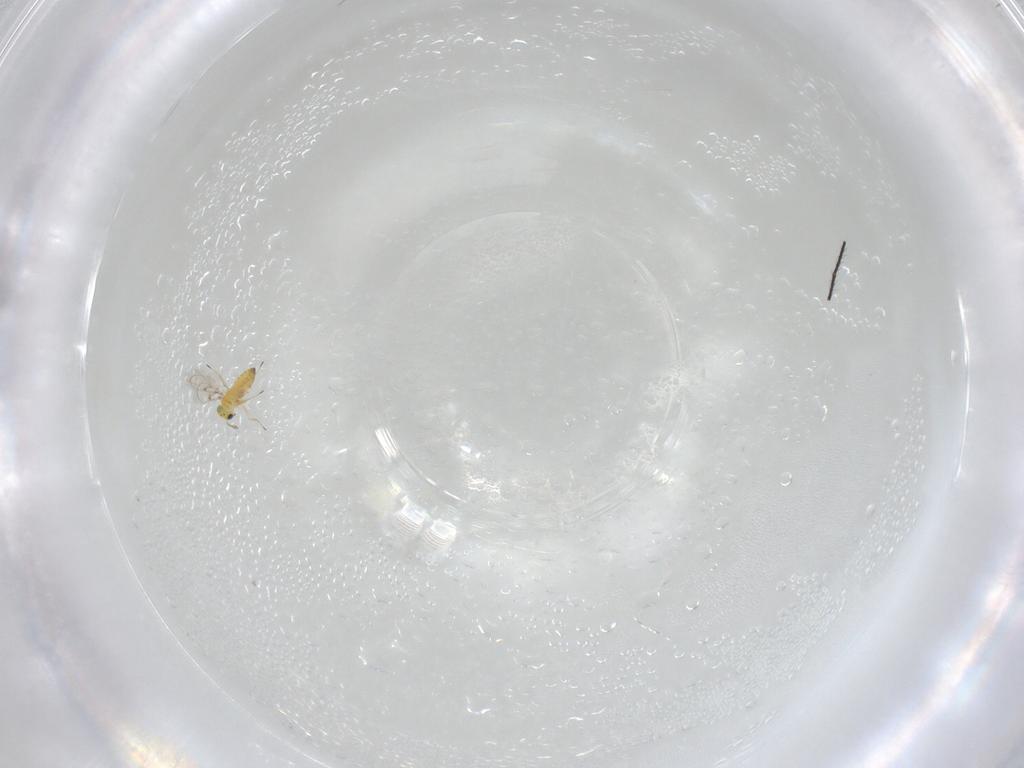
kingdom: Animalia
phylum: Arthropoda
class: Insecta
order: Hymenoptera
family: Trichogrammatidae
